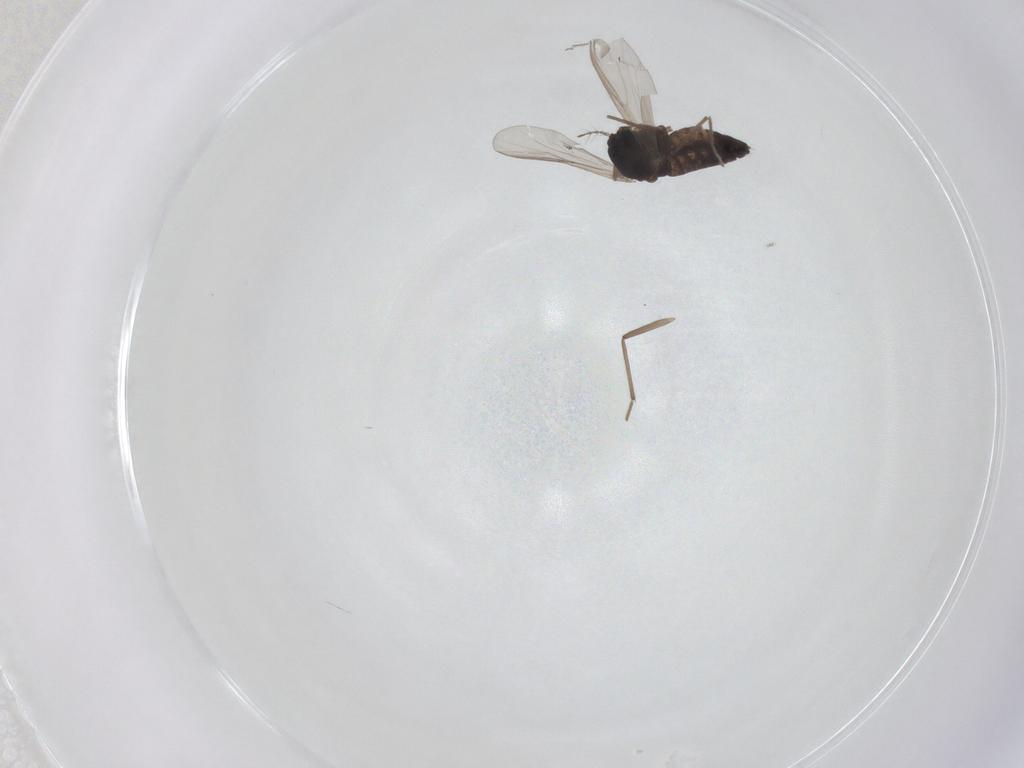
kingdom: Animalia
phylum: Arthropoda
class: Insecta
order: Diptera
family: Chironomidae
